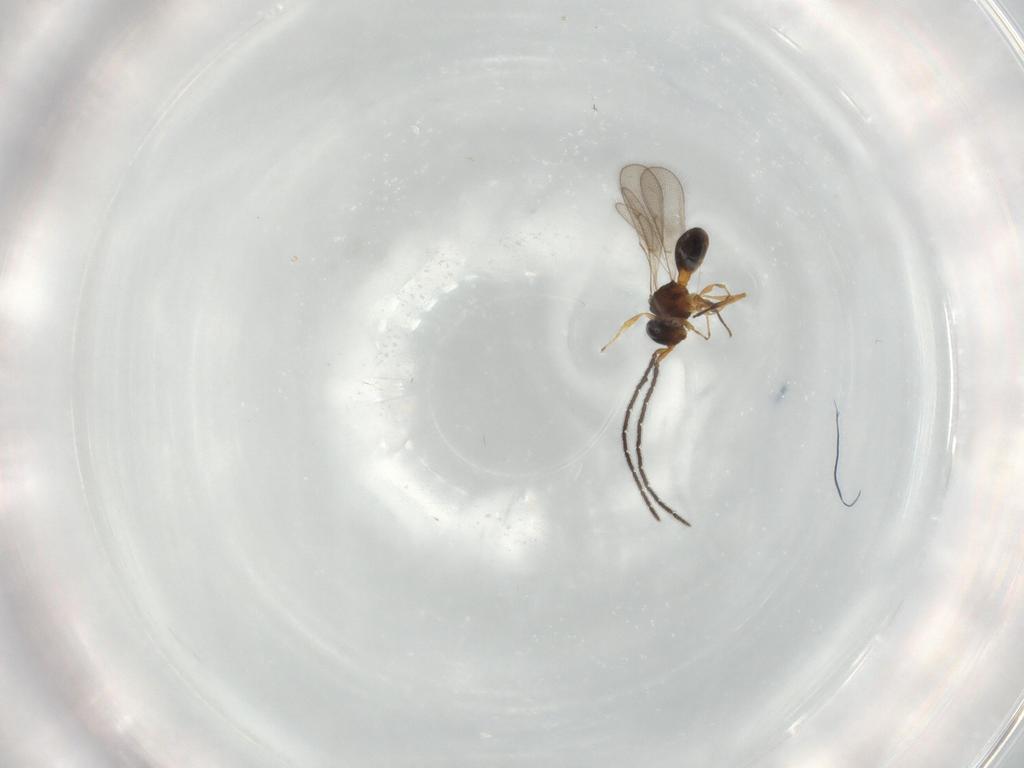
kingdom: Animalia
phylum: Arthropoda
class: Insecta
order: Hymenoptera
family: Scelionidae
